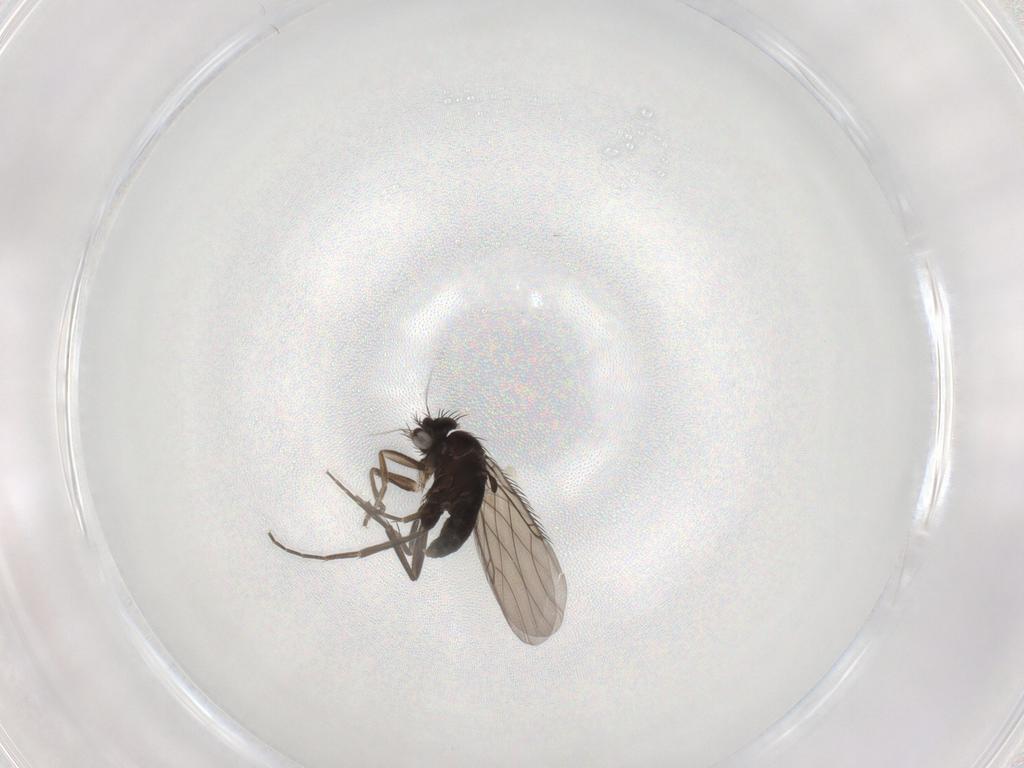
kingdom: Animalia
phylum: Arthropoda
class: Insecta
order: Diptera
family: Phoridae
